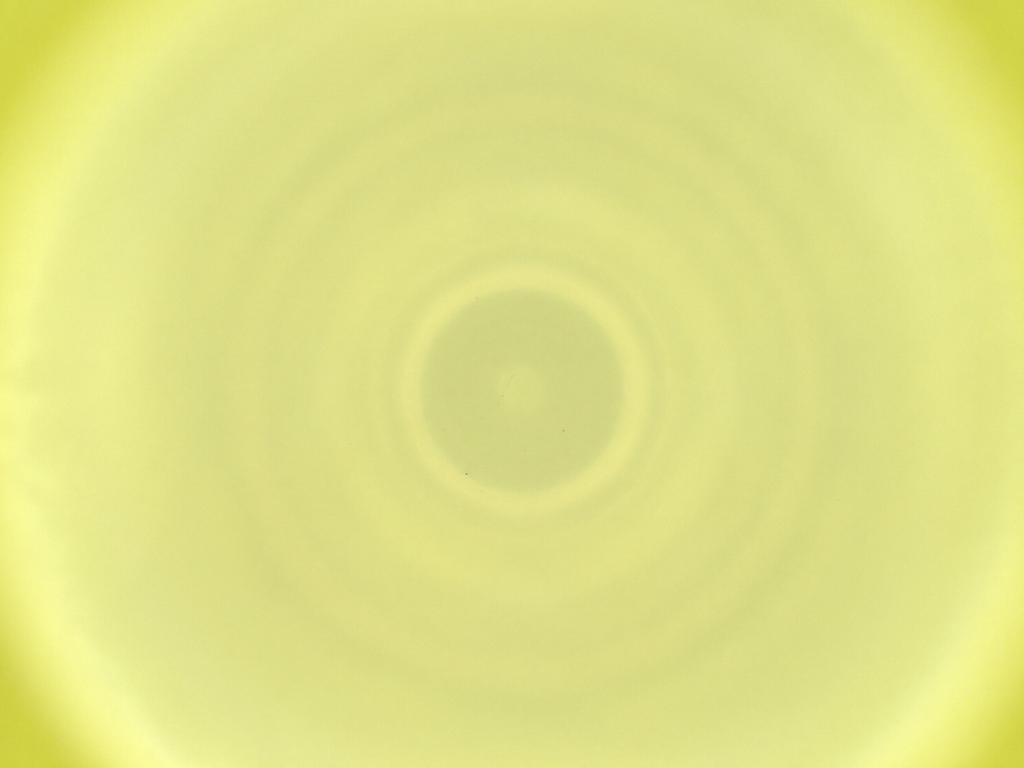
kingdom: Animalia
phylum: Arthropoda
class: Insecta
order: Diptera
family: Cecidomyiidae
